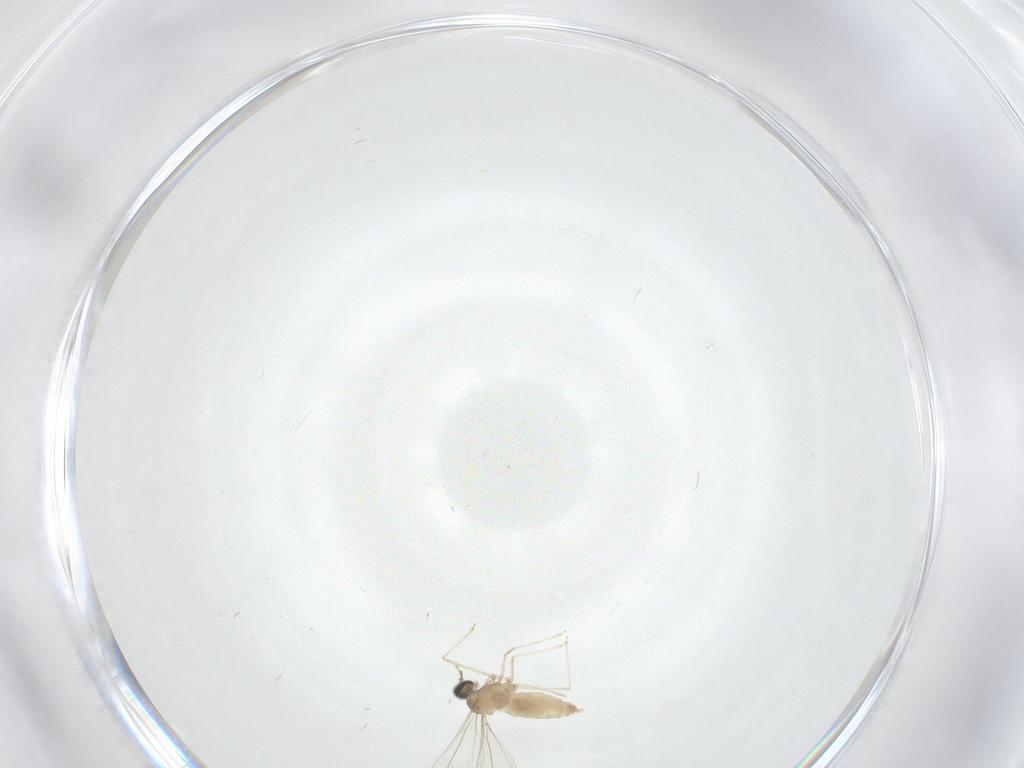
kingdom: Animalia
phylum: Arthropoda
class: Insecta
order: Diptera
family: Cecidomyiidae
